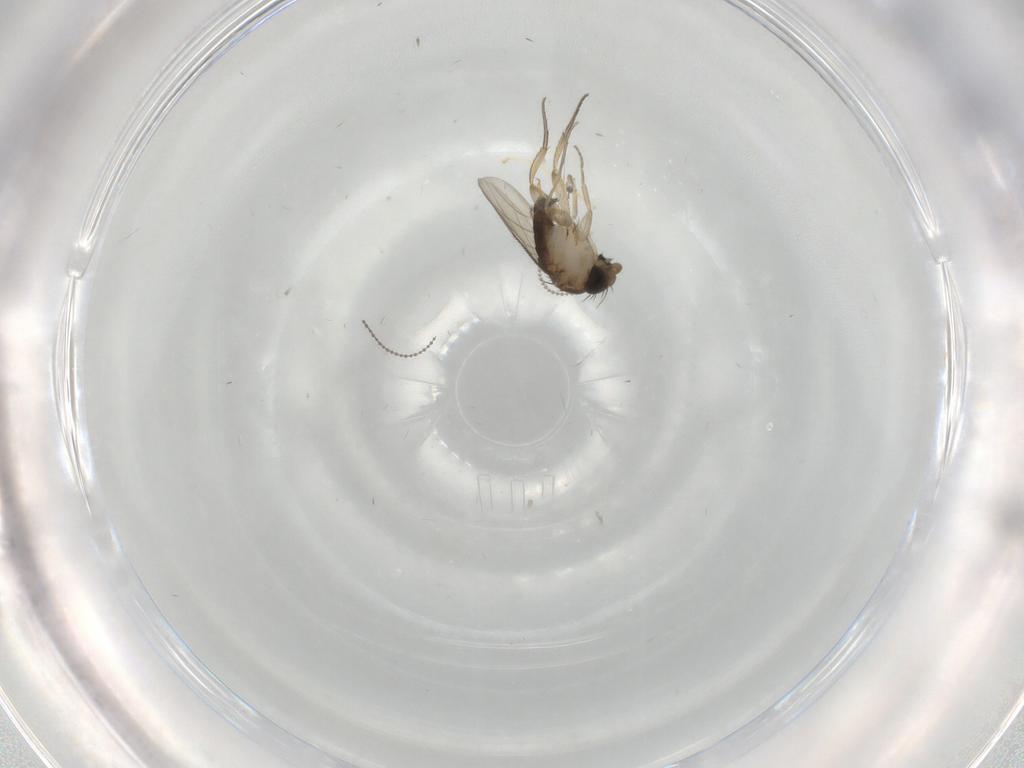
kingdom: Animalia
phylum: Arthropoda
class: Insecta
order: Diptera
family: Phoridae
